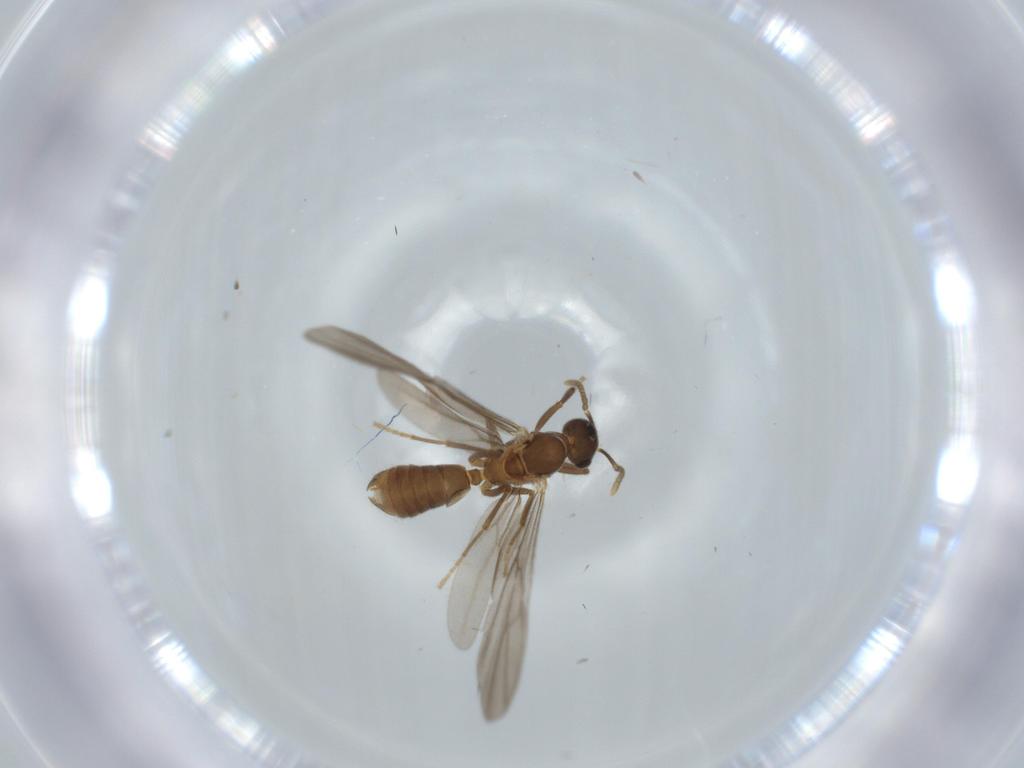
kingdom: Animalia
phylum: Arthropoda
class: Insecta
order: Hymenoptera
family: Formicidae
